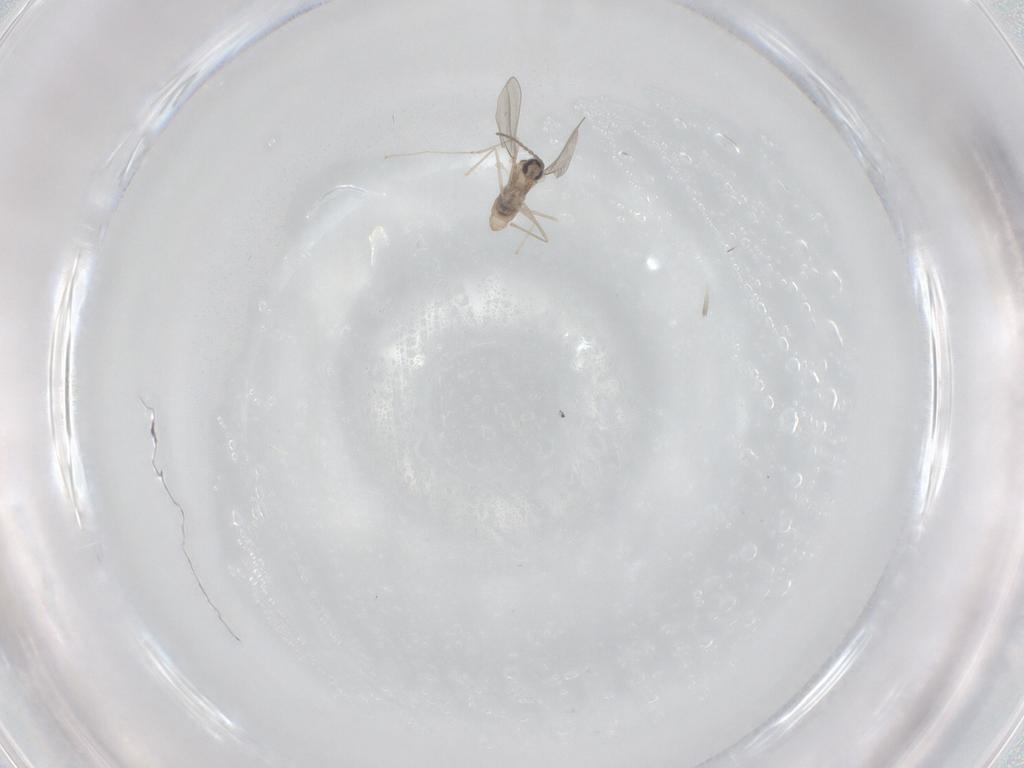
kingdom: Animalia
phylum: Arthropoda
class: Insecta
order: Diptera
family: Cecidomyiidae
